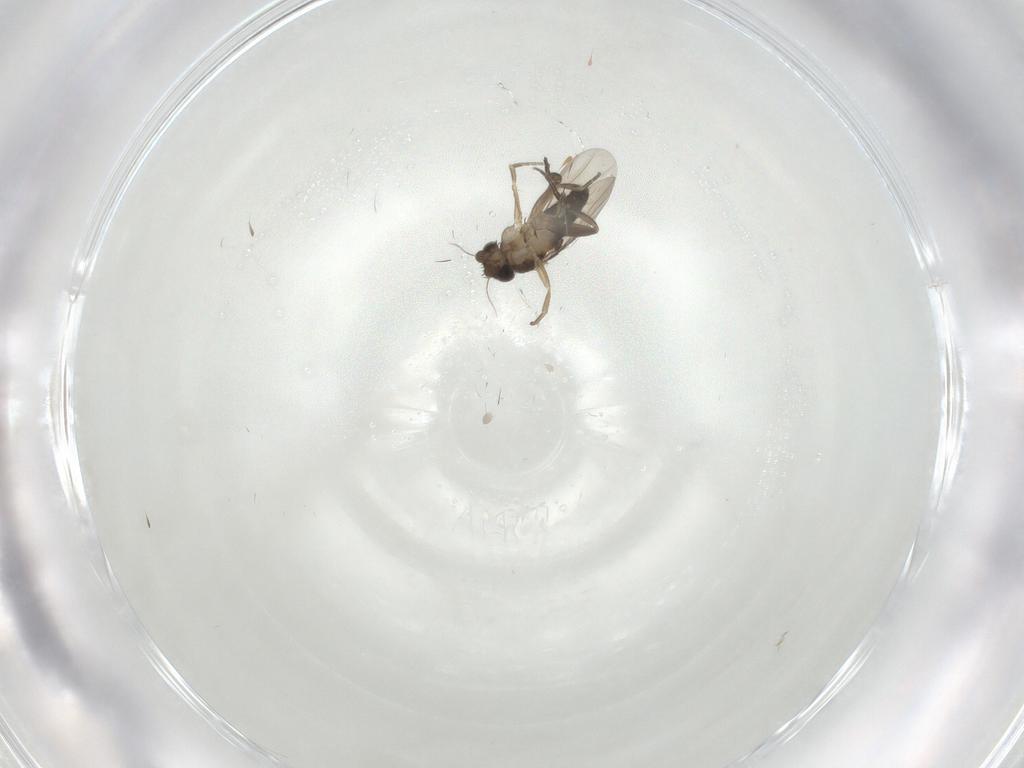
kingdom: Animalia
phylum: Arthropoda
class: Insecta
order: Diptera
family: Phoridae
